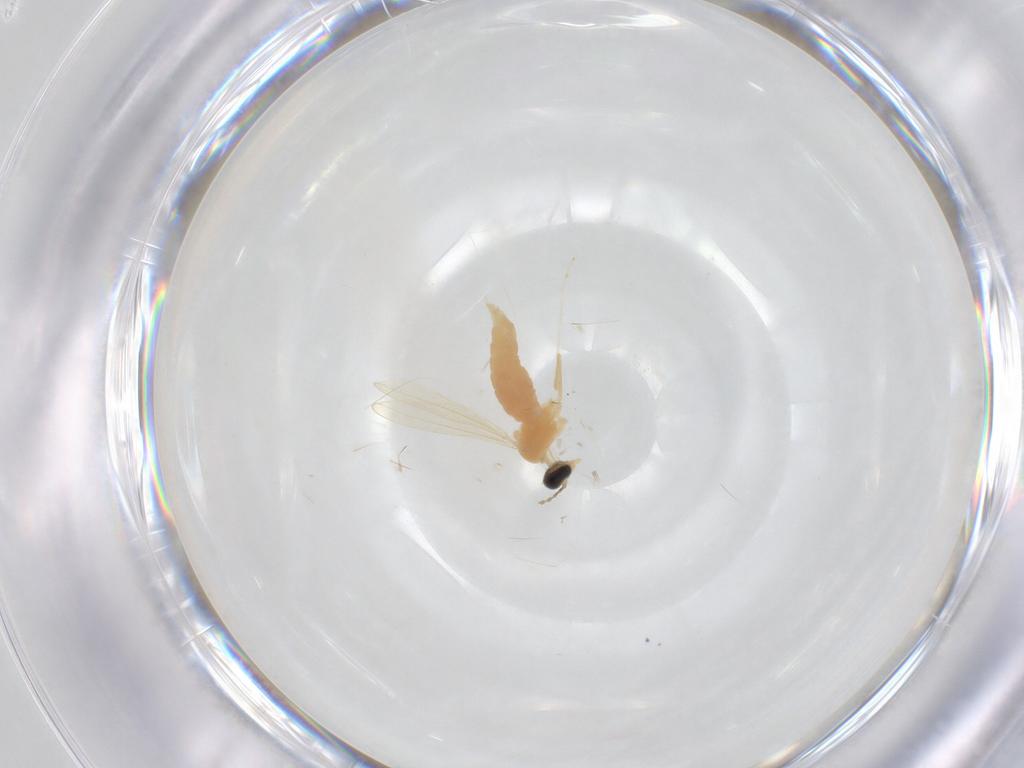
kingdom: Animalia
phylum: Arthropoda
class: Insecta
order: Diptera
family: Cecidomyiidae
